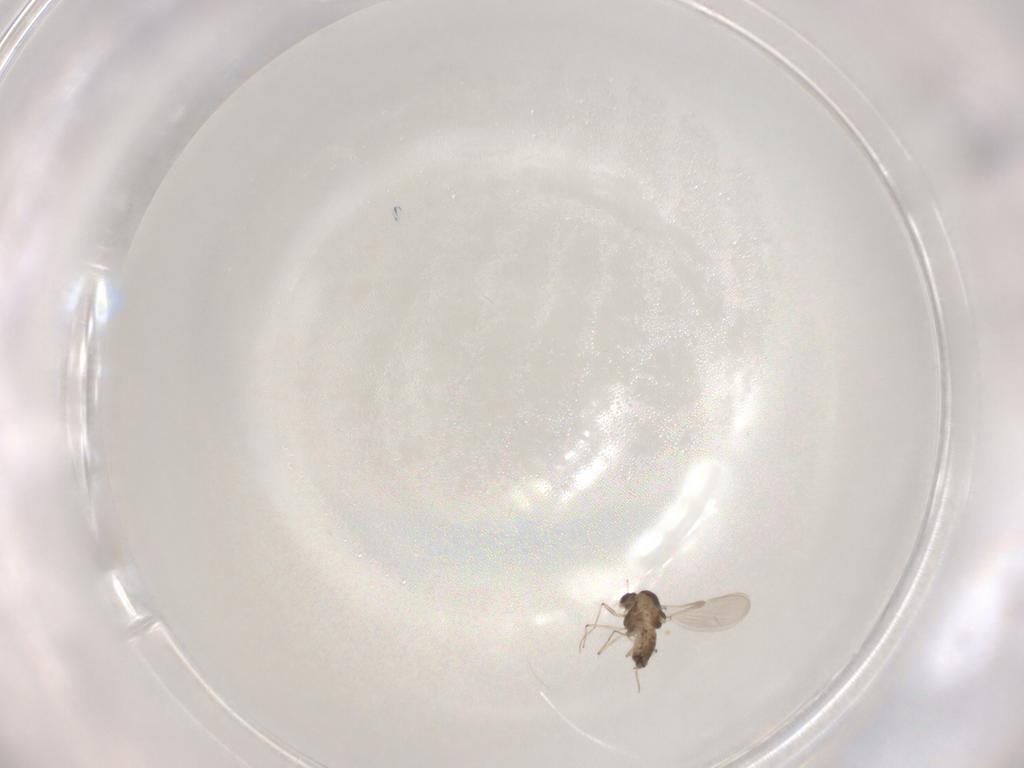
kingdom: Animalia
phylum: Arthropoda
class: Insecta
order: Diptera
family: Chironomidae
